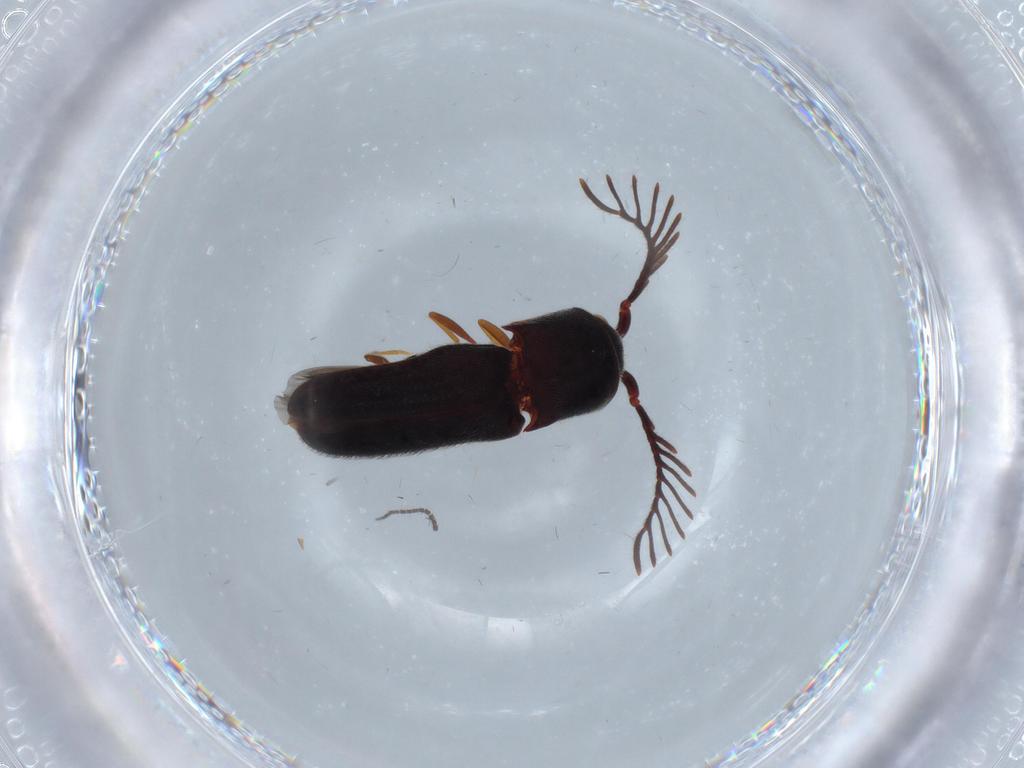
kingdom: Animalia
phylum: Arthropoda
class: Insecta
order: Coleoptera
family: Eucnemidae
